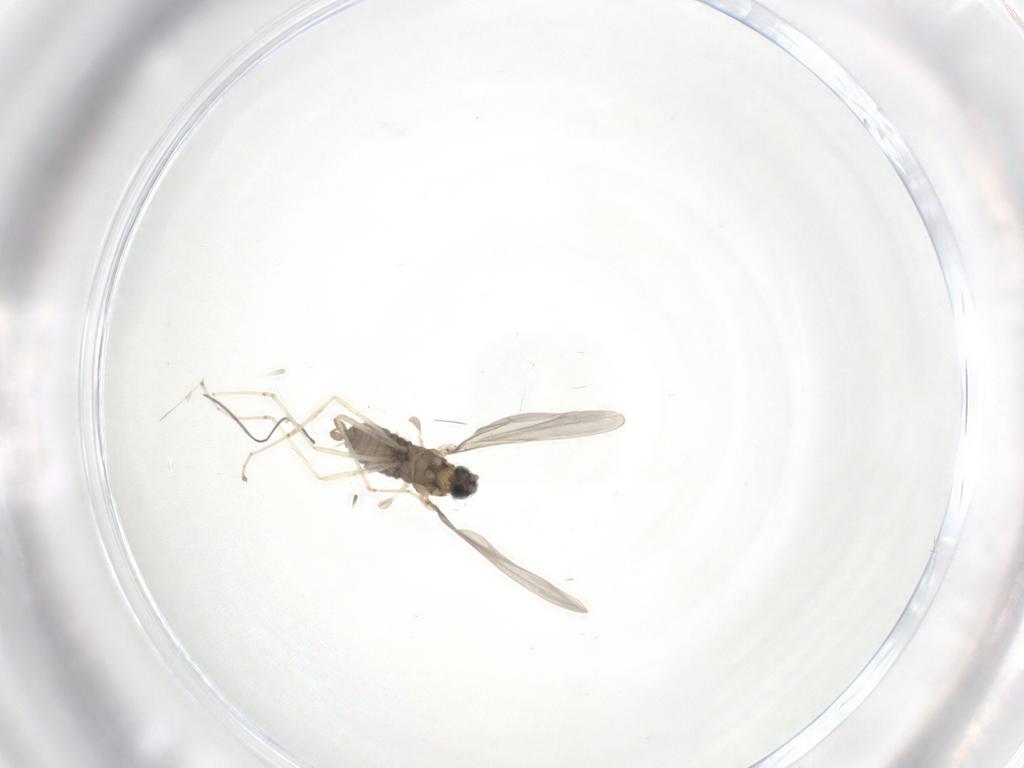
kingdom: Animalia
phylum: Arthropoda
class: Insecta
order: Diptera
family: Cecidomyiidae
